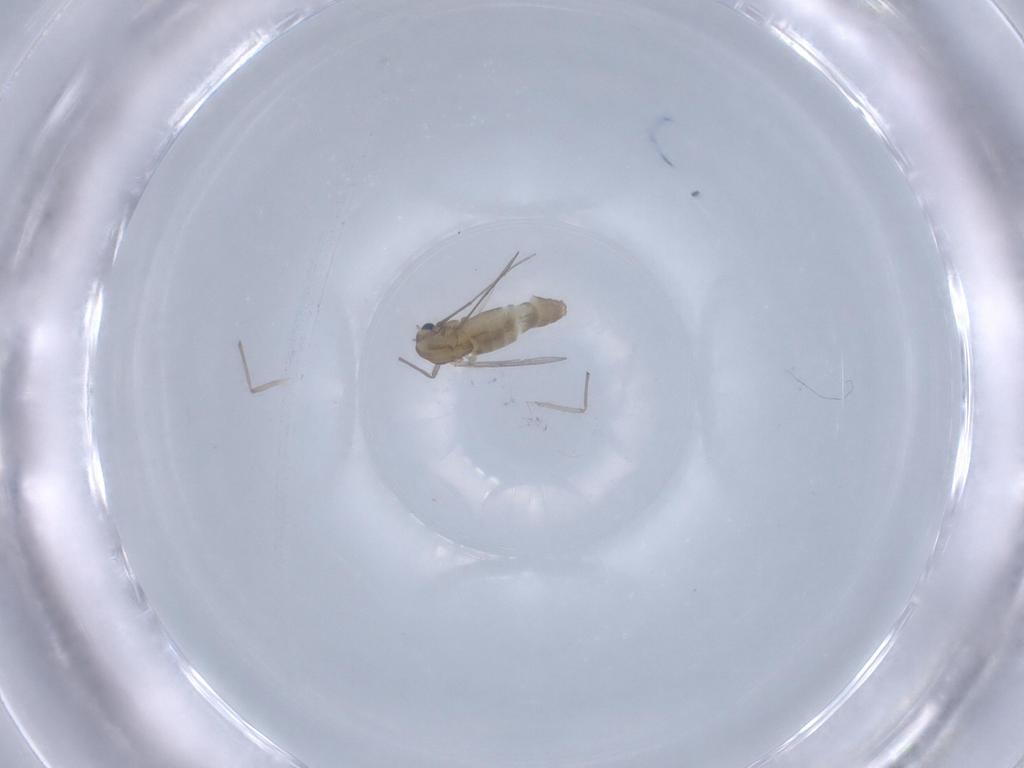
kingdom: Animalia
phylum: Arthropoda
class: Insecta
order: Diptera
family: Chironomidae
